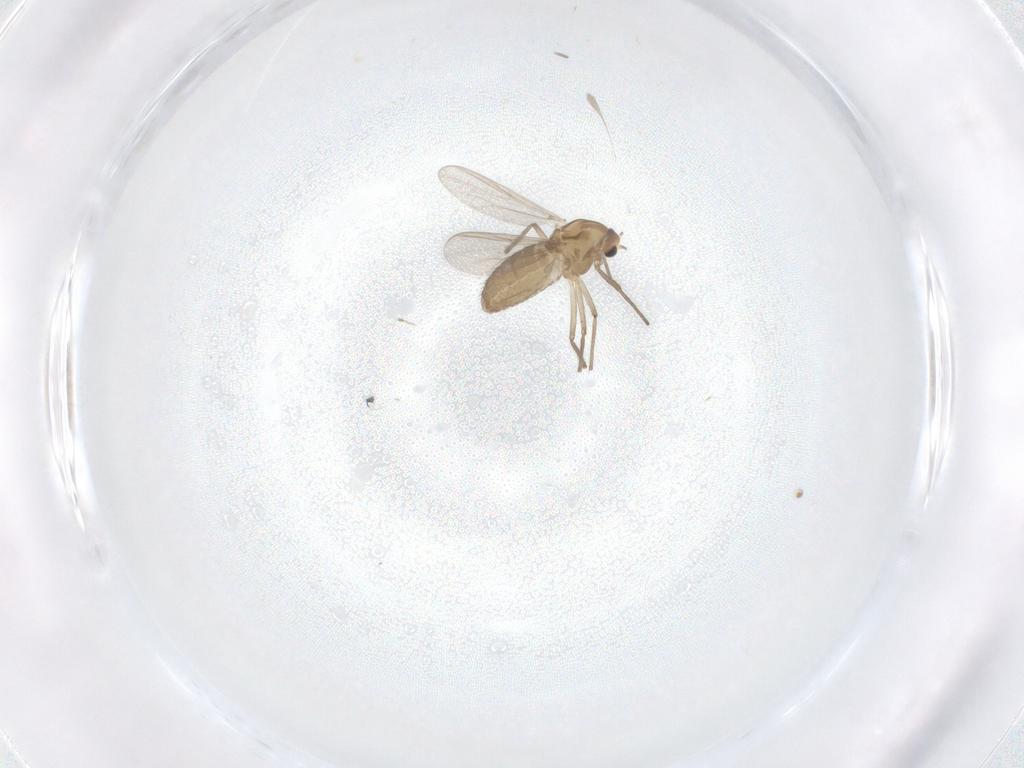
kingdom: Animalia
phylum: Arthropoda
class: Insecta
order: Diptera
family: Chironomidae
